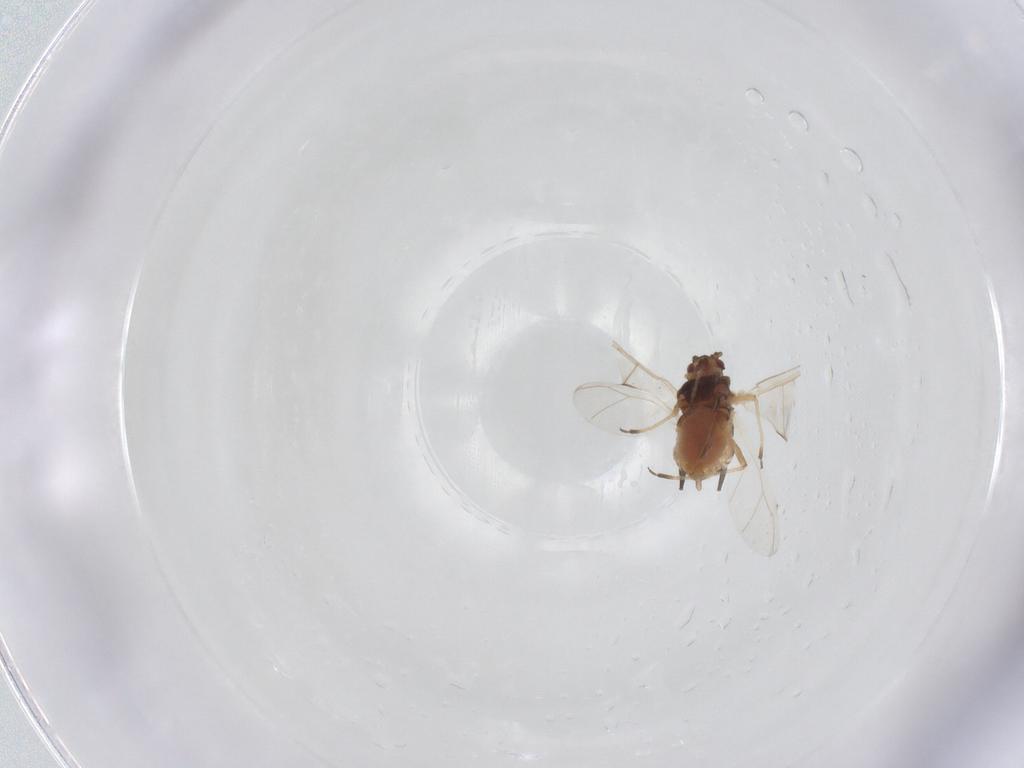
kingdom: Animalia
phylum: Arthropoda
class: Insecta
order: Hemiptera
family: Aphididae
